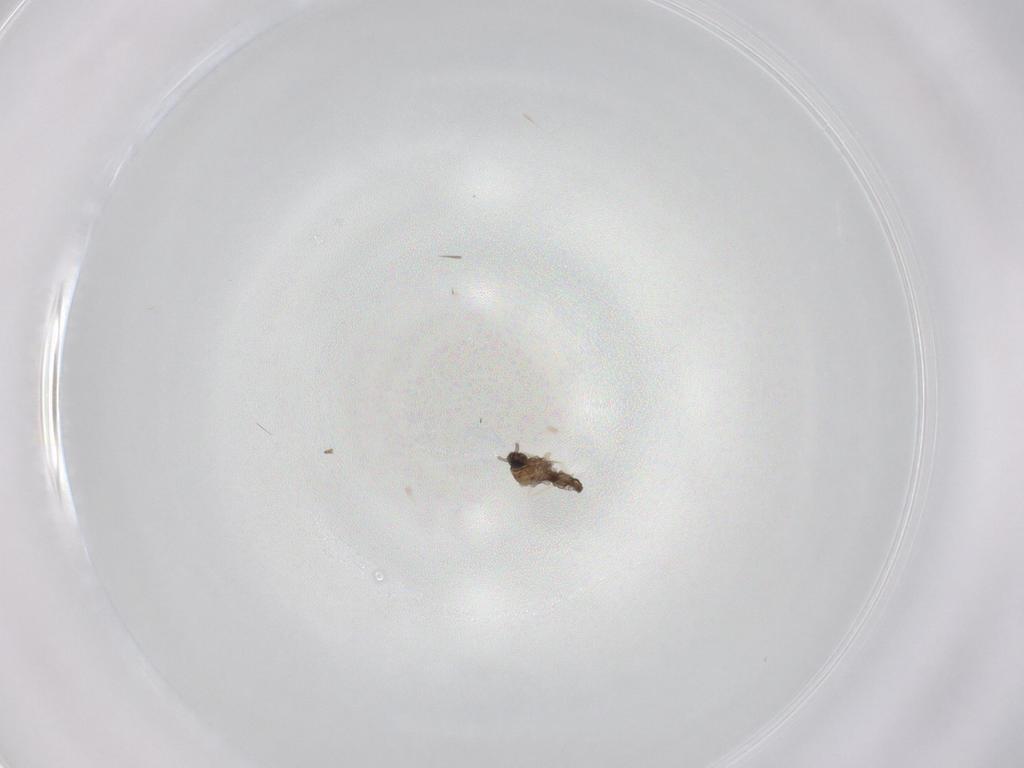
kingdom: Animalia
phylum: Arthropoda
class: Insecta
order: Diptera
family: Cecidomyiidae
